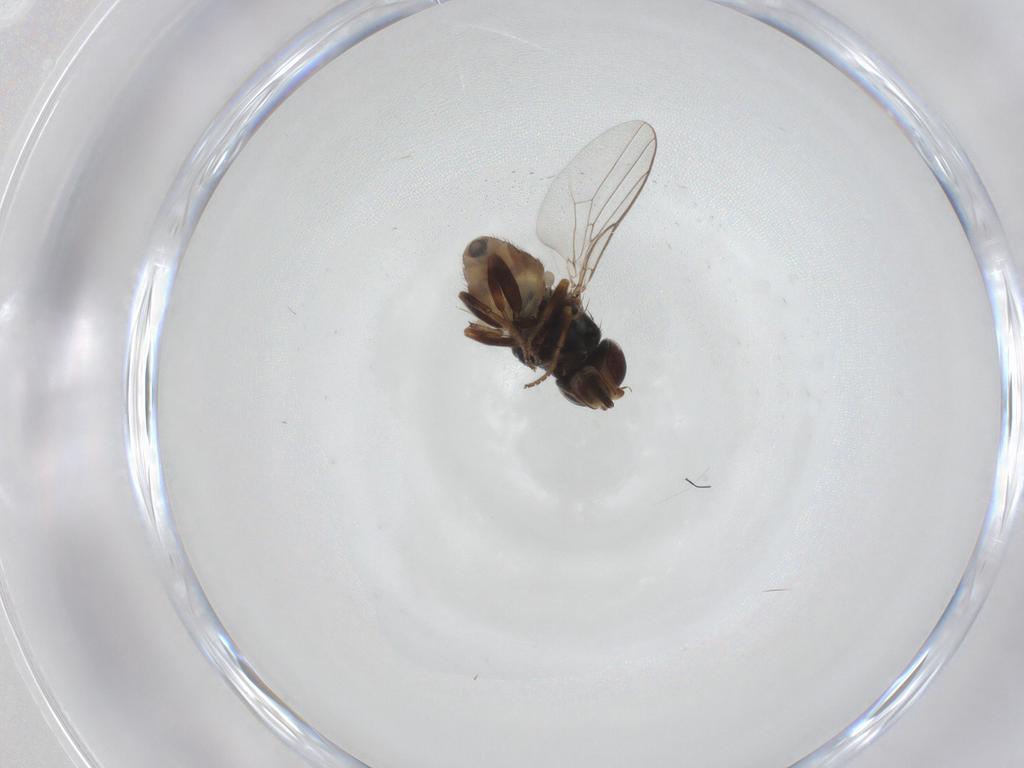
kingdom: Animalia
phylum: Arthropoda
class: Insecta
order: Diptera
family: Chloropidae
